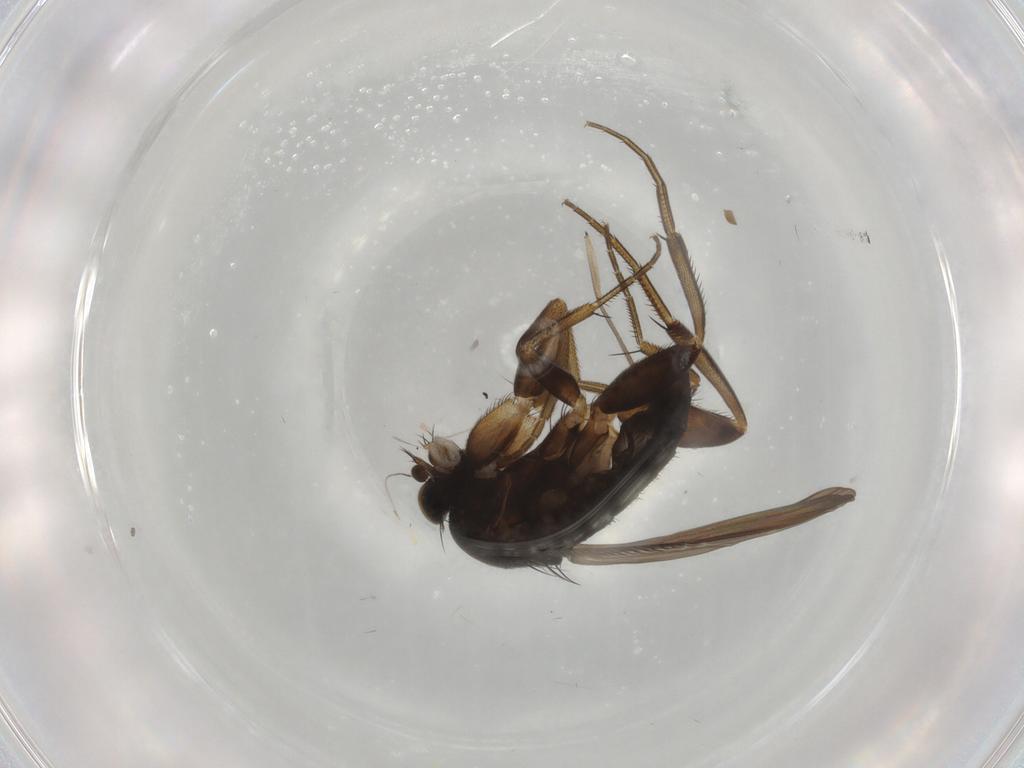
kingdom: Animalia
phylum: Arthropoda
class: Insecta
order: Diptera
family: Phoridae
